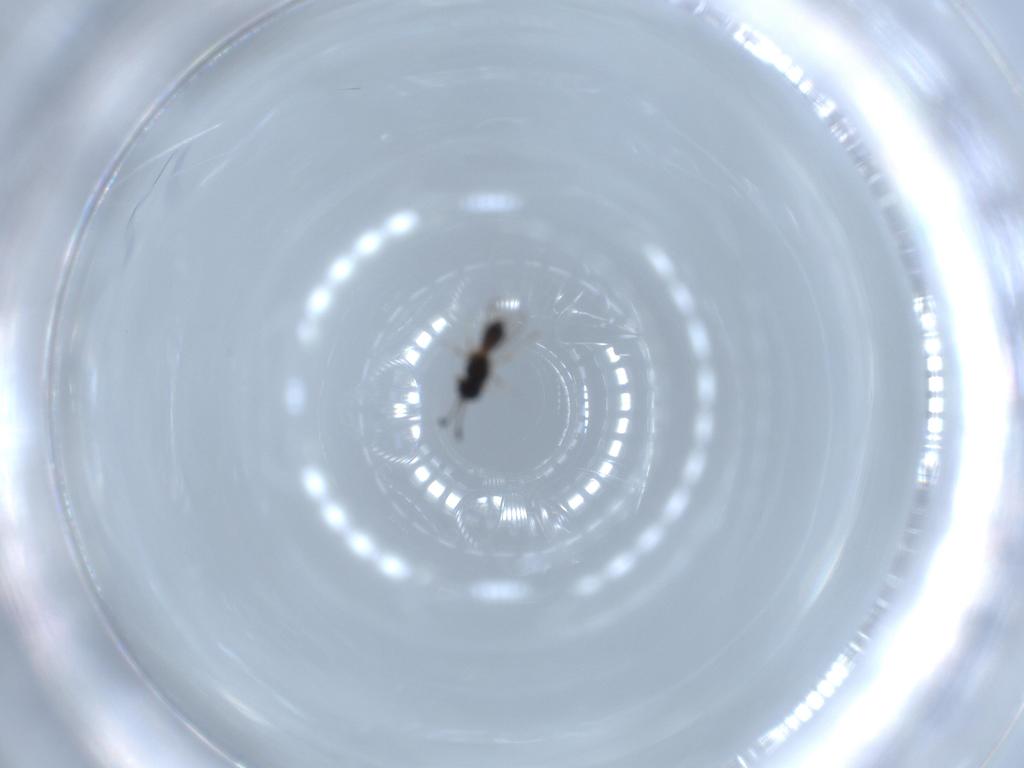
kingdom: Animalia
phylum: Arthropoda
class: Insecta
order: Hymenoptera
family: Scelionidae
